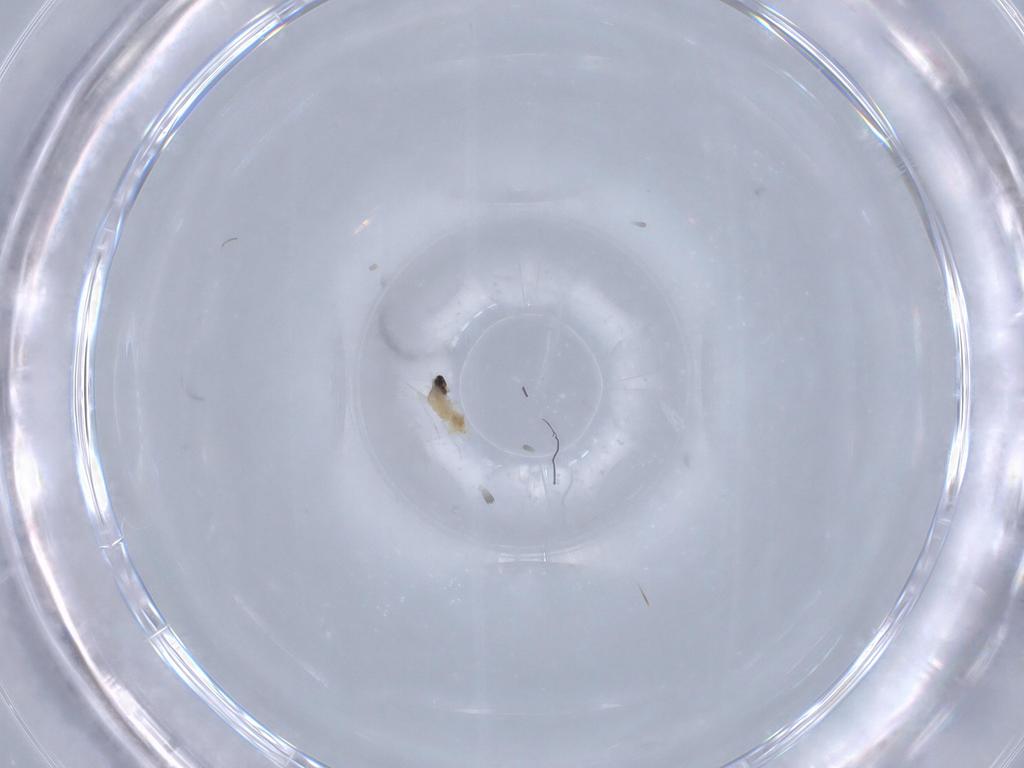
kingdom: Animalia
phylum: Arthropoda
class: Insecta
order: Diptera
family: Cecidomyiidae
